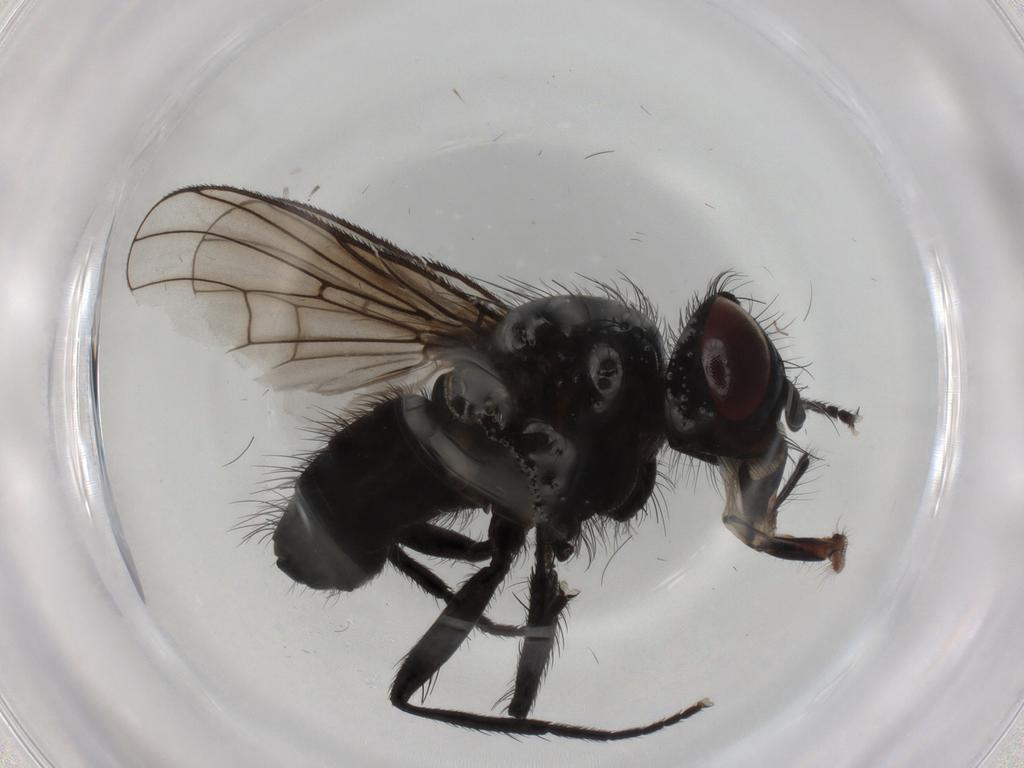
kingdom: Animalia
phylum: Arthropoda
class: Insecta
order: Diptera
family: Muscidae
